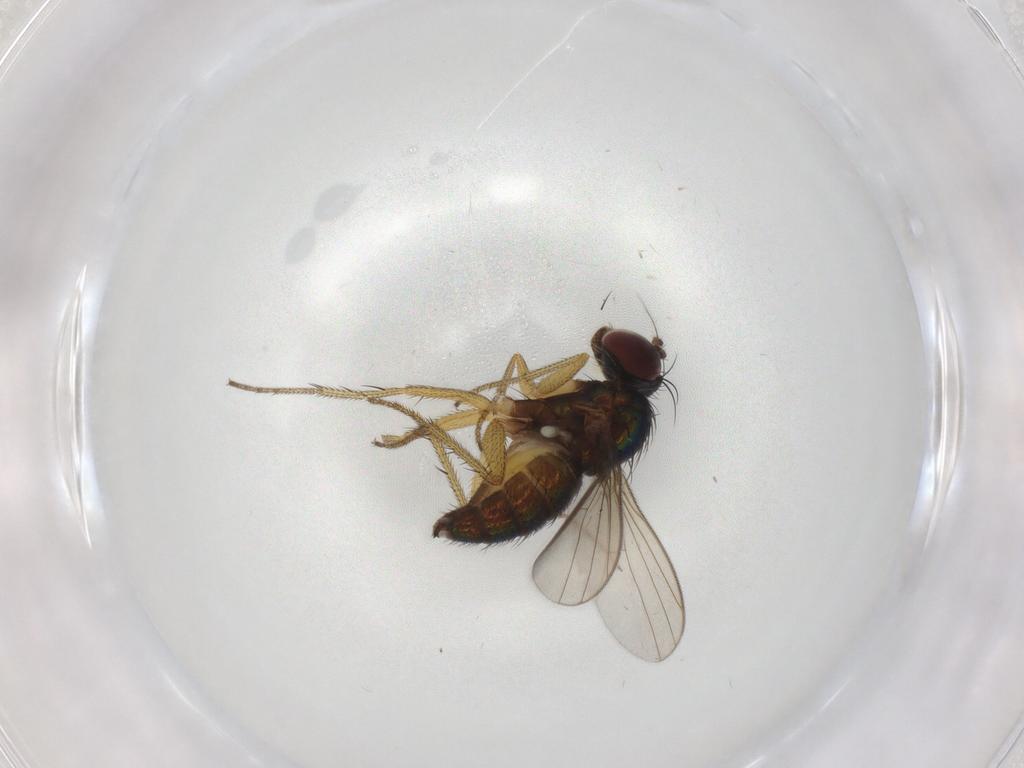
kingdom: Animalia
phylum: Arthropoda
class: Insecta
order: Diptera
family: Dolichopodidae
